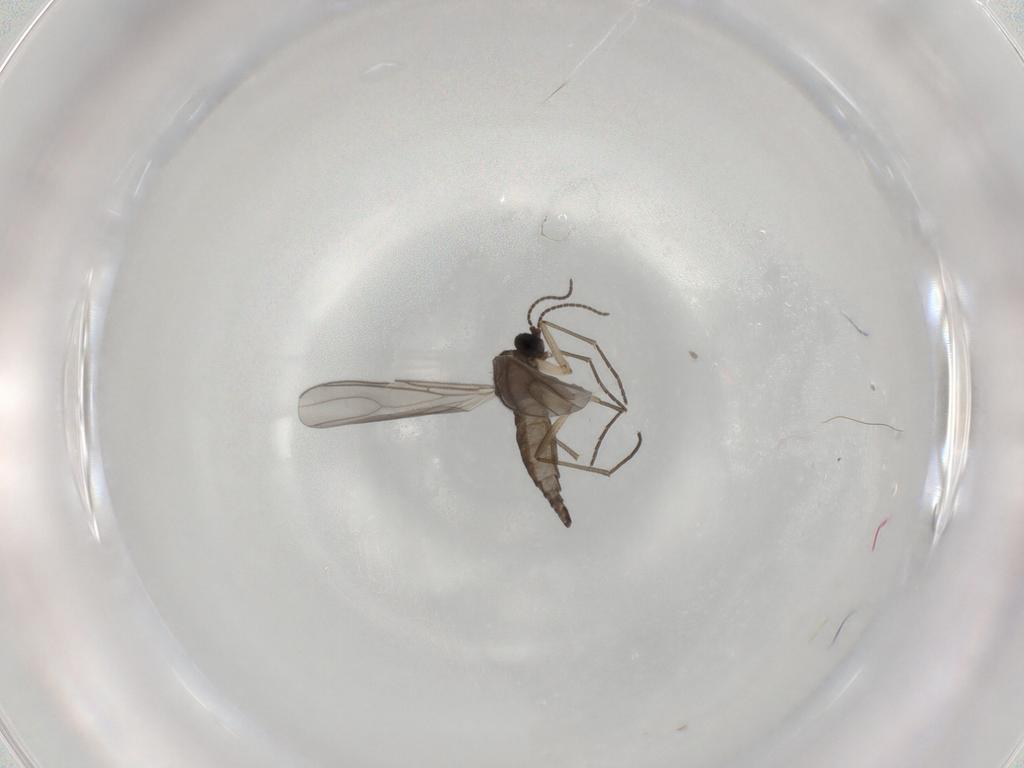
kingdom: Animalia
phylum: Arthropoda
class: Insecta
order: Diptera
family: Sciaridae
